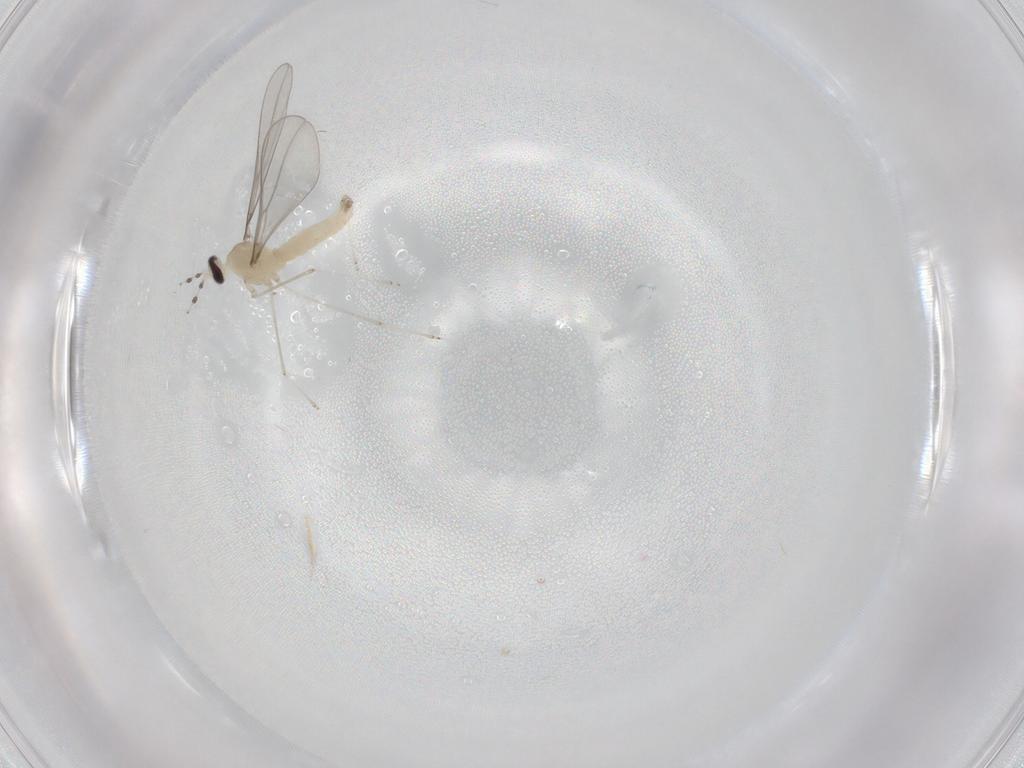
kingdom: Animalia
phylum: Arthropoda
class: Insecta
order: Diptera
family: Cecidomyiidae
